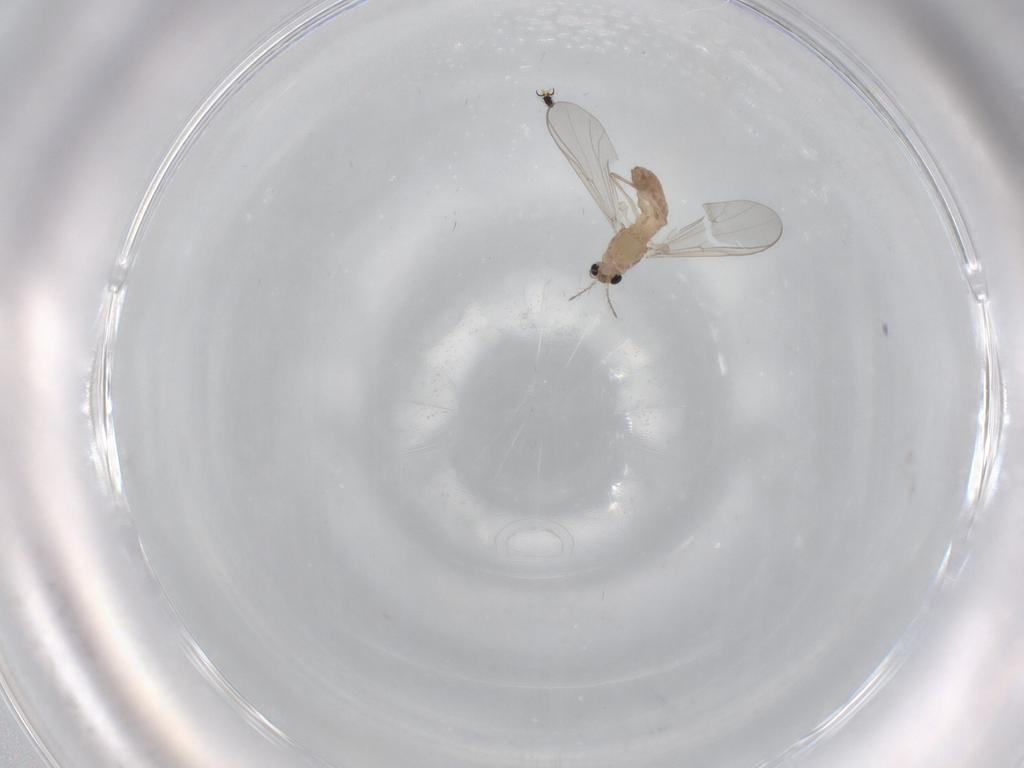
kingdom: Animalia
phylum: Arthropoda
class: Insecta
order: Diptera
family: Chironomidae
